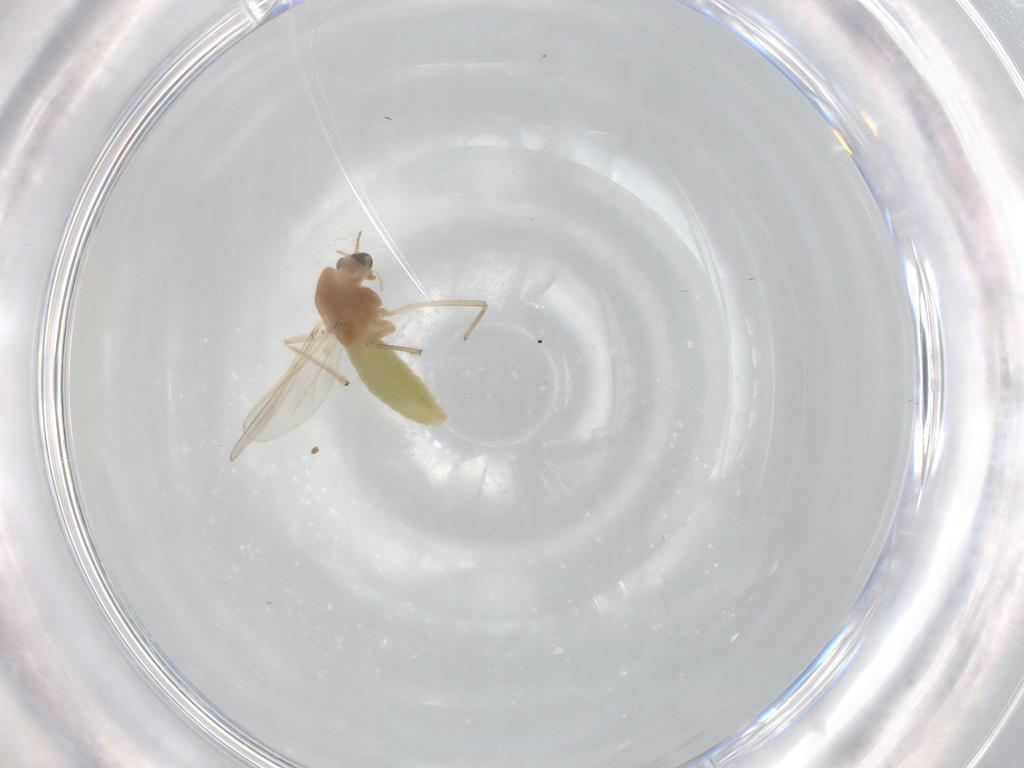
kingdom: Animalia
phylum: Arthropoda
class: Insecta
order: Diptera
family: Chironomidae
